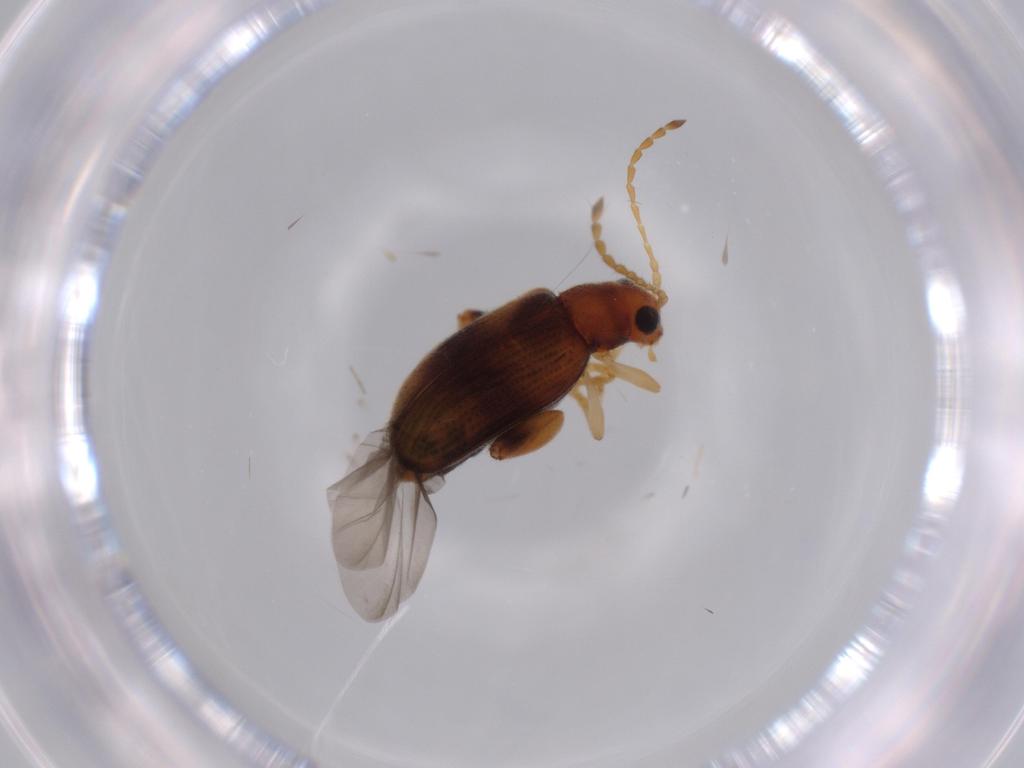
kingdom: Animalia
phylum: Arthropoda
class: Insecta
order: Coleoptera
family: Chrysomelidae
